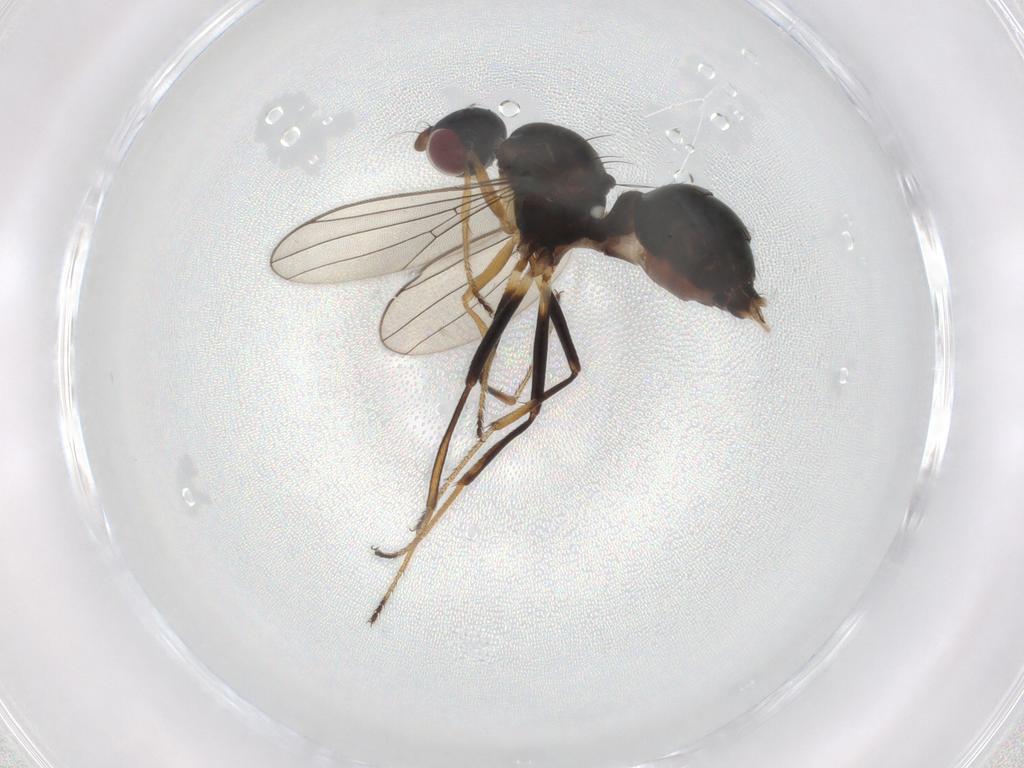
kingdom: Animalia
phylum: Arthropoda
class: Insecta
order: Diptera
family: Sepsidae
